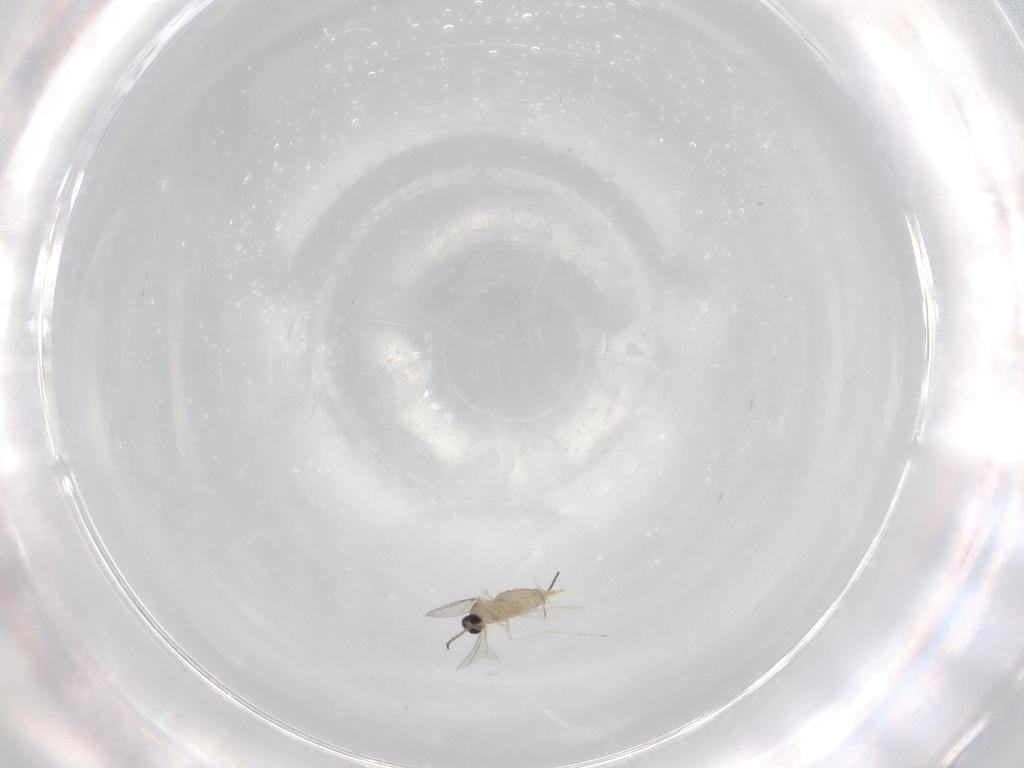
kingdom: Animalia
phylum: Arthropoda
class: Insecta
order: Diptera
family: Cecidomyiidae
